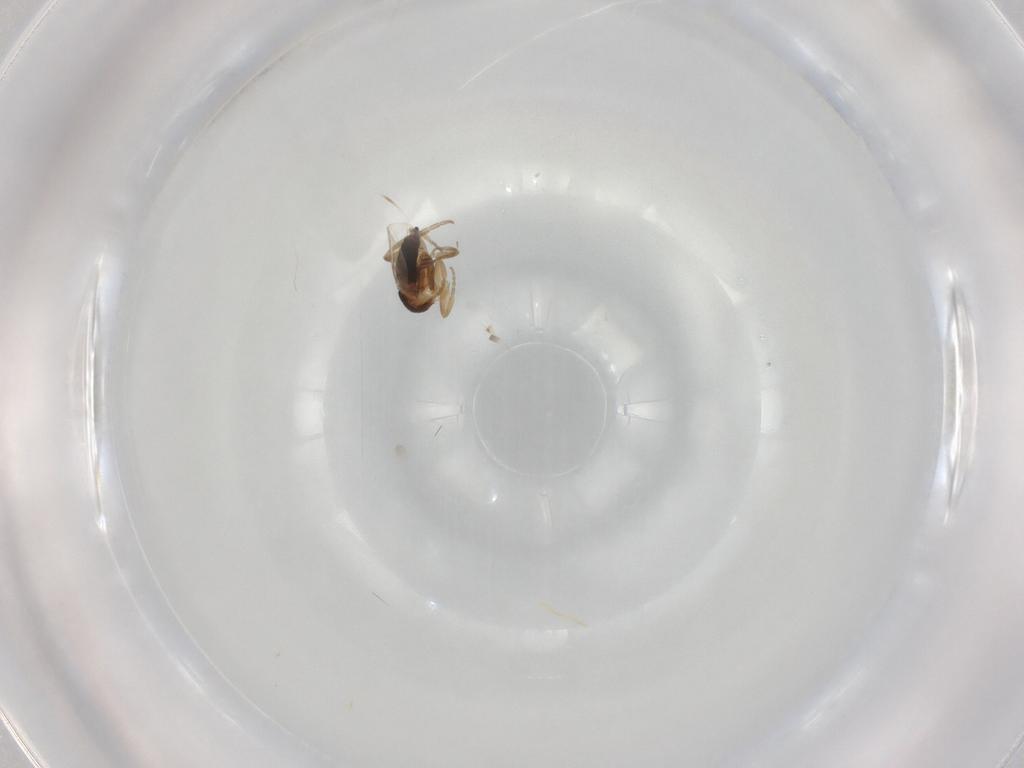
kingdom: Animalia
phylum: Arthropoda
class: Insecta
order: Diptera
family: Phoridae
